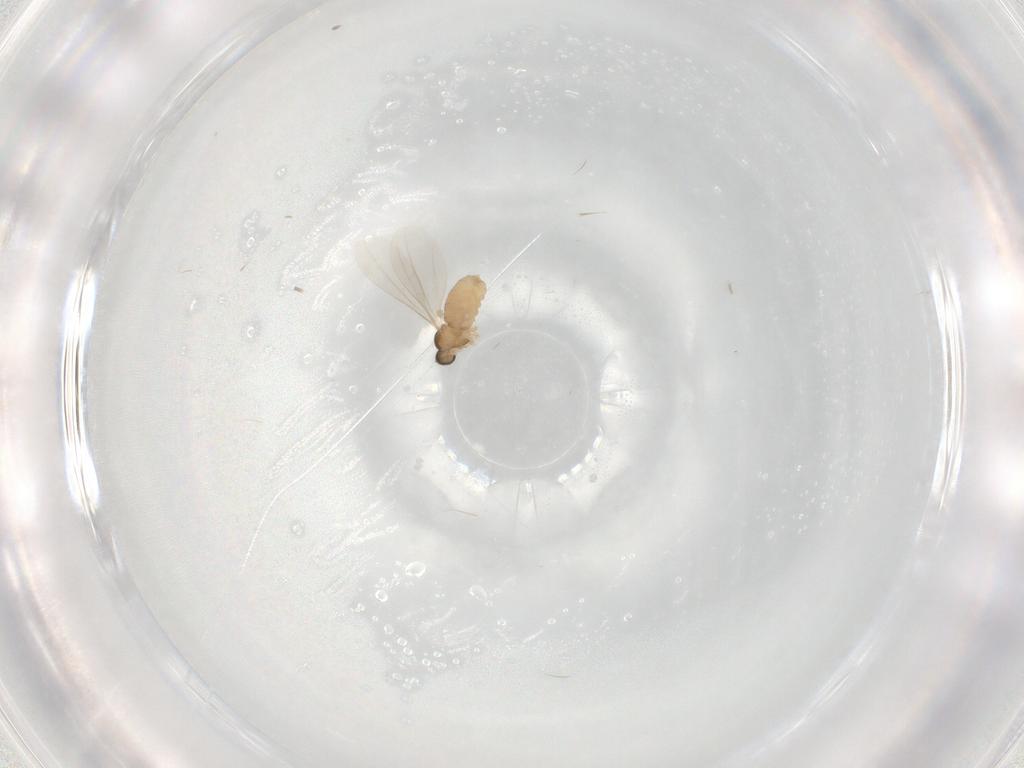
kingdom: Animalia
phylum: Arthropoda
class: Insecta
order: Diptera
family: Cecidomyiidae
